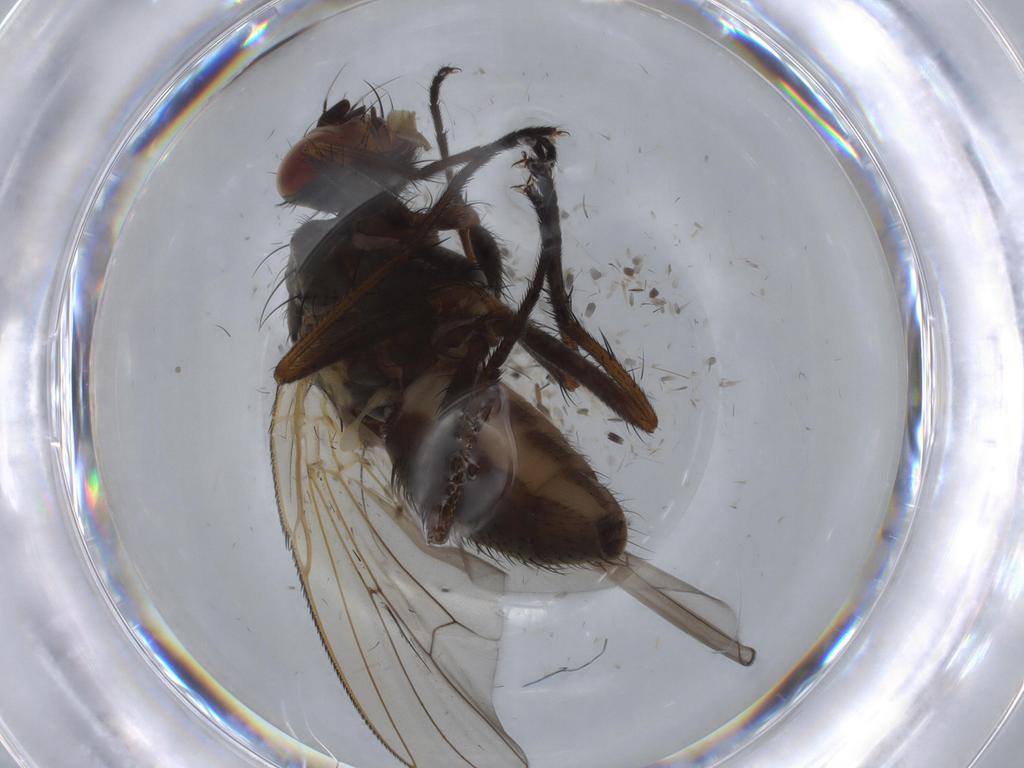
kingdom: Animalia
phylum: Arthropoda
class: Insecta
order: Diptera
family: Anthomyiidae
